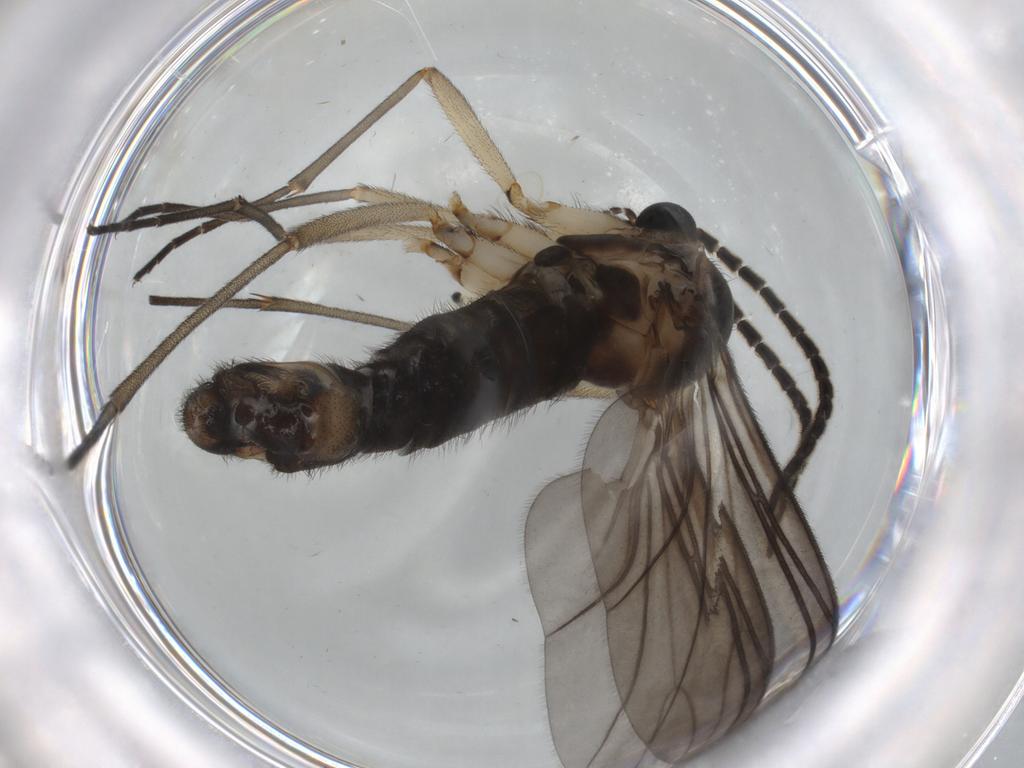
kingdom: Animalia
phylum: Arthropoda
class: Insecta
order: Diptera
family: Sciaridae
